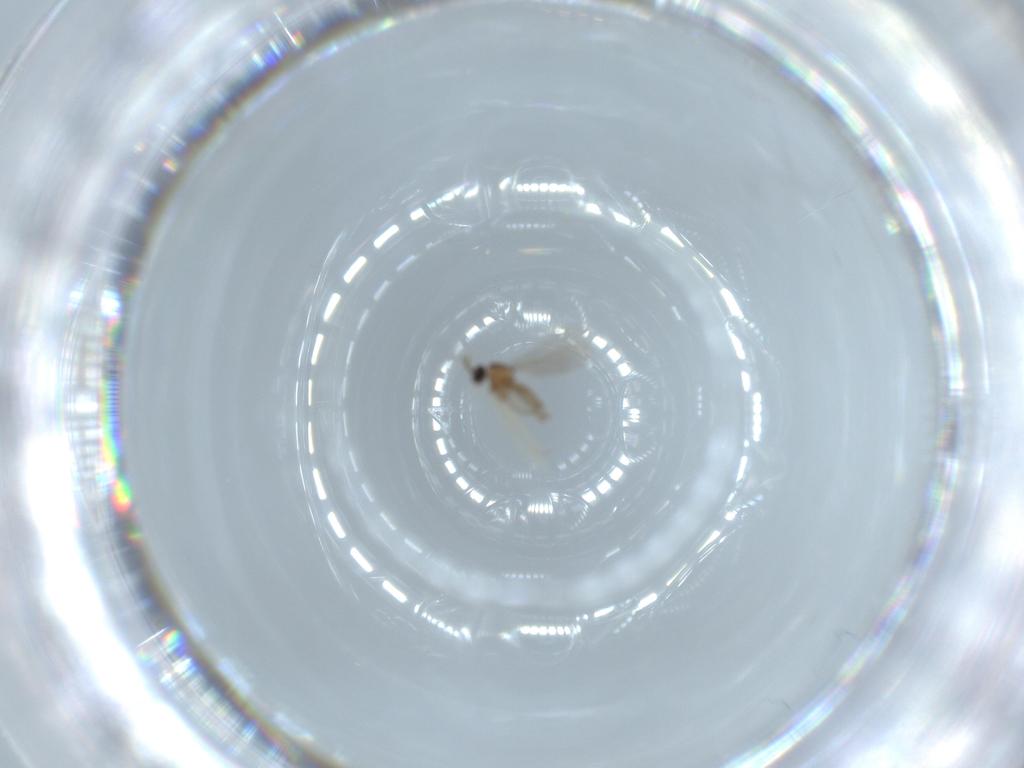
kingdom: Animalia
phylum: Arthropoda
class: Insecta
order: Diptera
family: Cecidomyiidae
